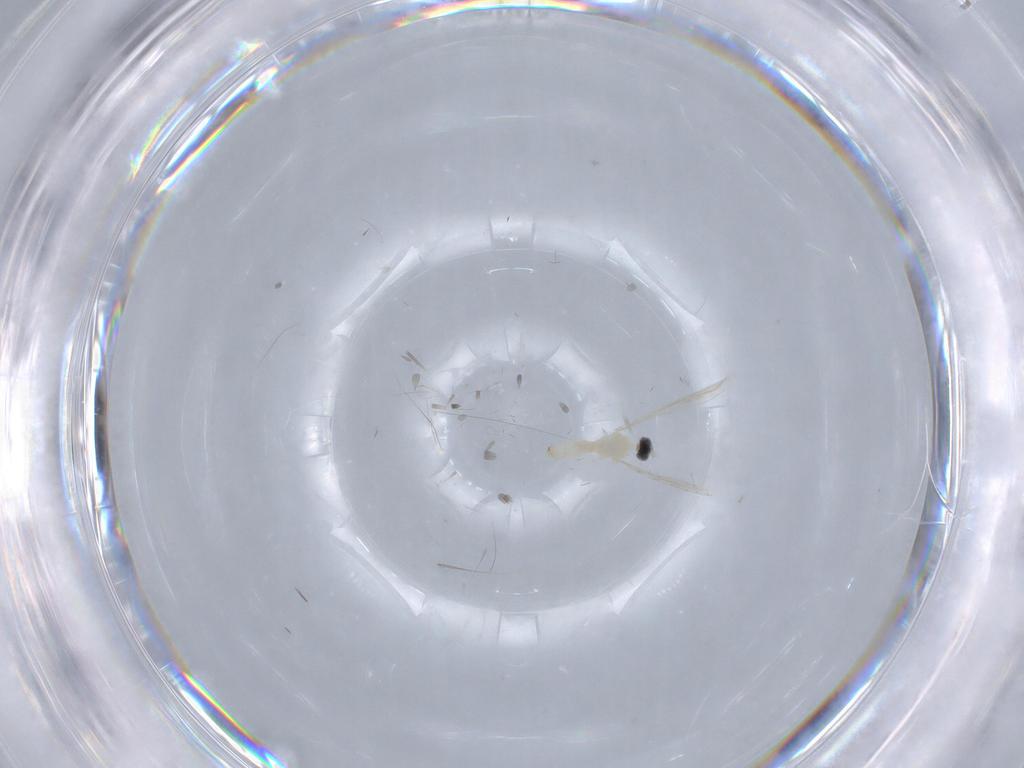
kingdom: Animalia
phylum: Arthropoda
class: Insecta
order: Diptera
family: Cecidomyiidae
